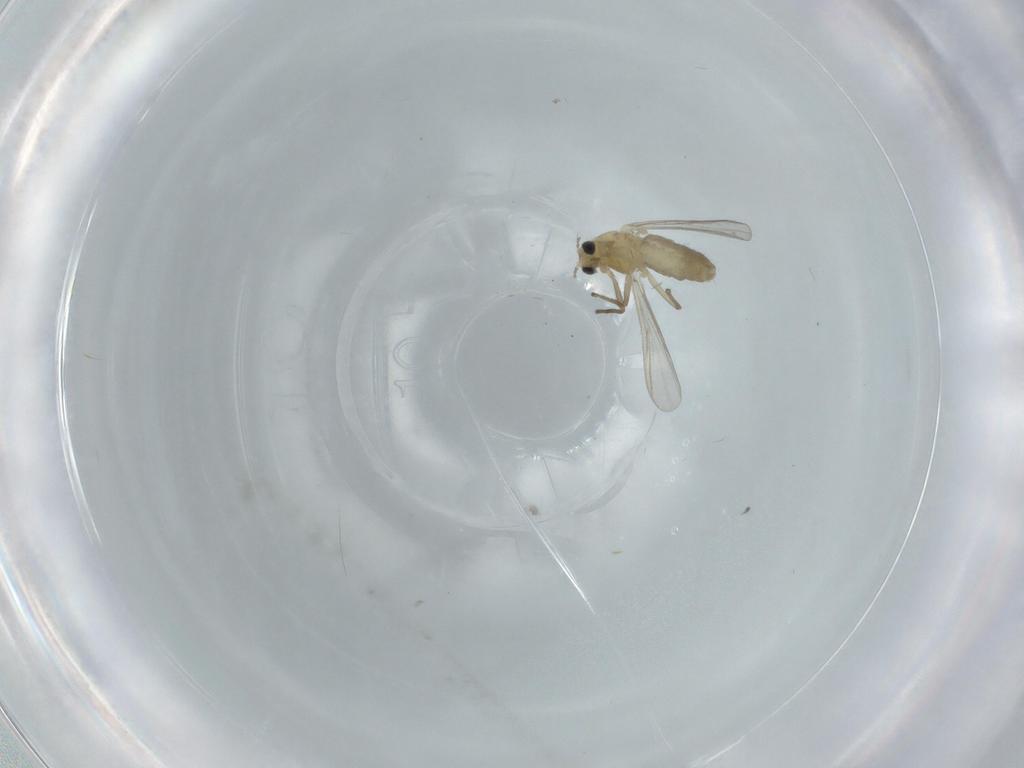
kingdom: Animalia
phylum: Arthropoda
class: Insecta
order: Diptera
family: Chironomidae
